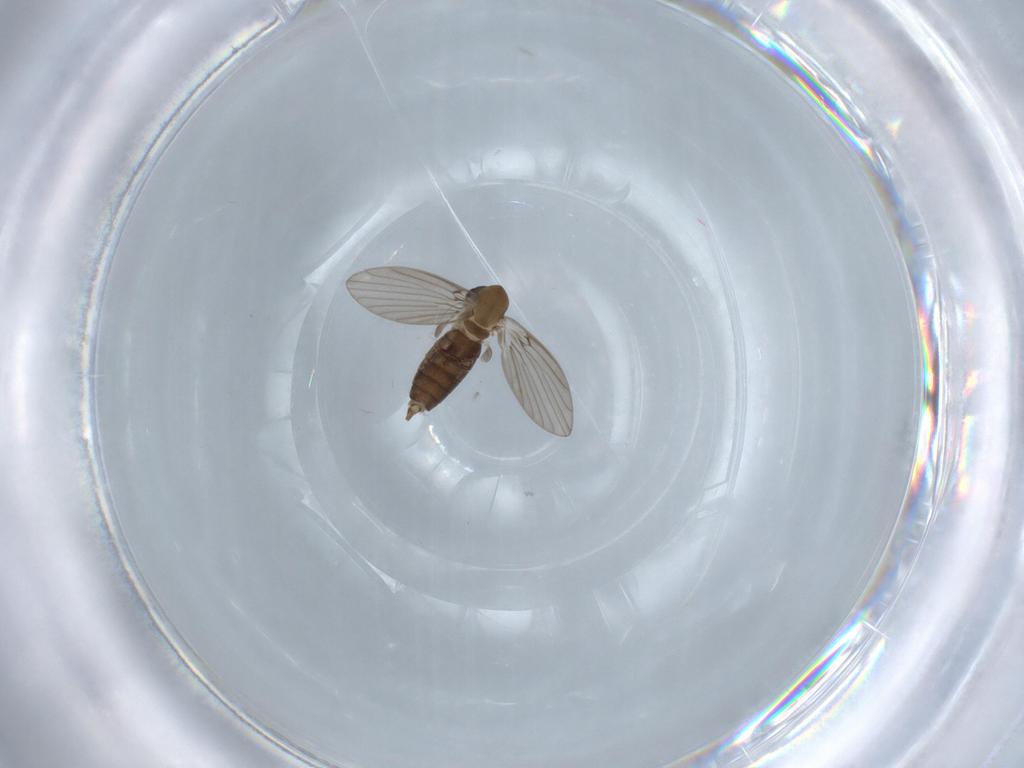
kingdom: Animalia
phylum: Arthropoda
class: Insecta
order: Diptera
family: Psychodidae
